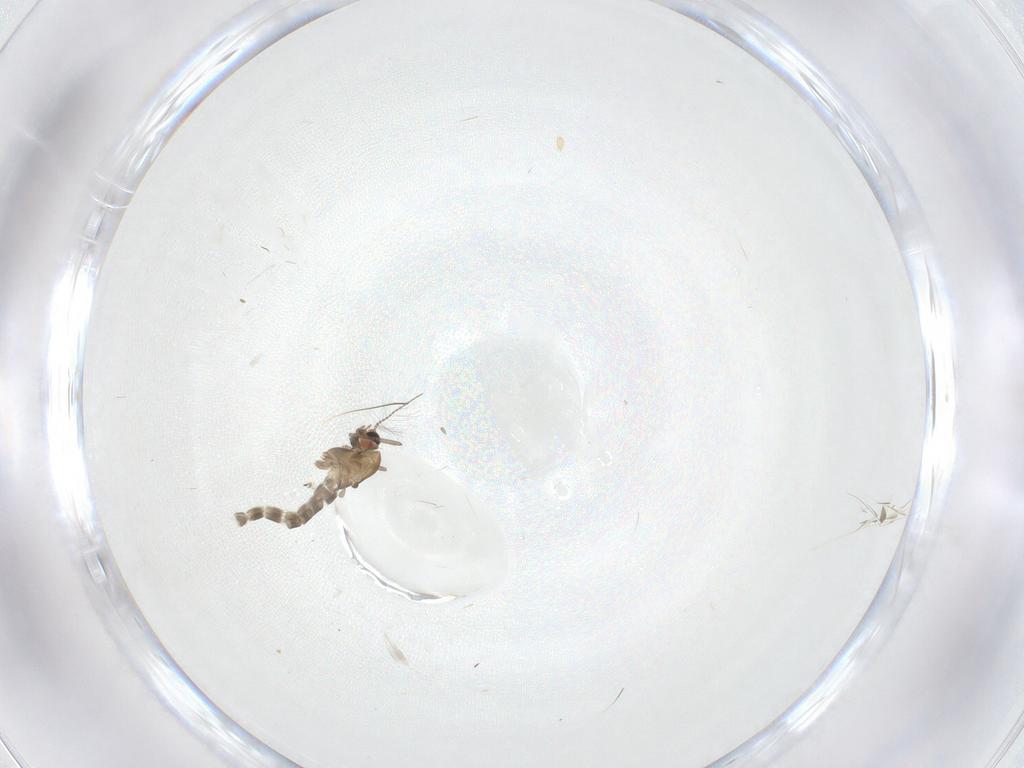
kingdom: Animalia
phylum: Arthropoda
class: Insecta
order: Diptera
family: Chironomidae
